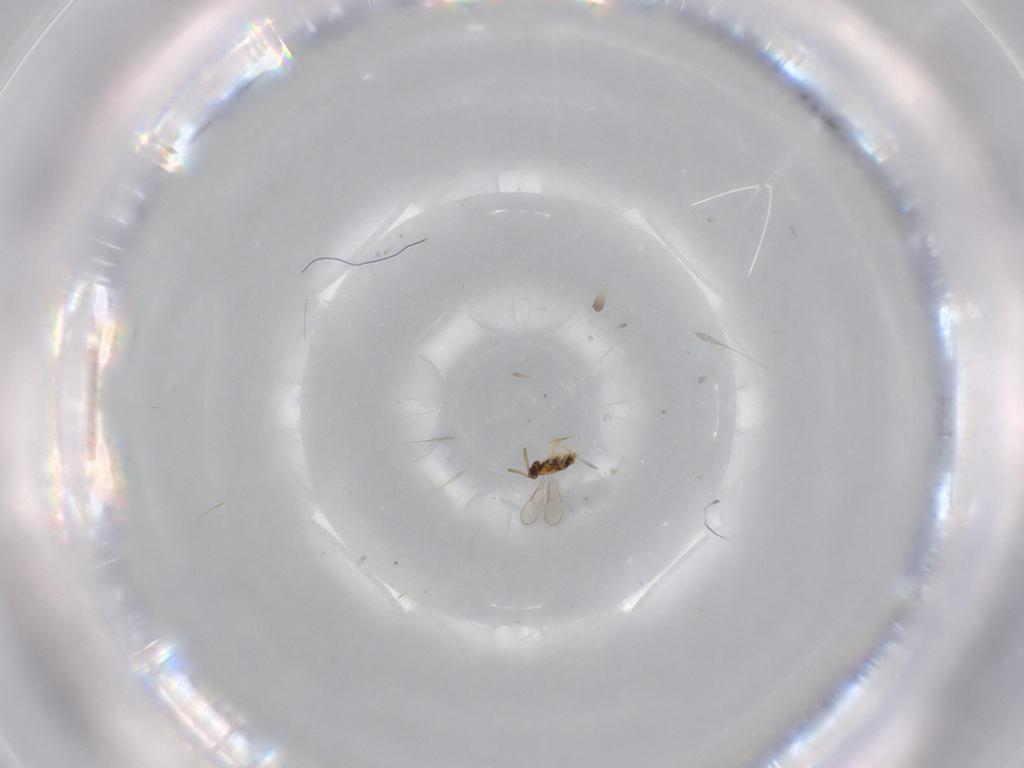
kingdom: Animalia
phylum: Arthropoda
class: Insecta
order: Hymenoptera
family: Aphelinidae
